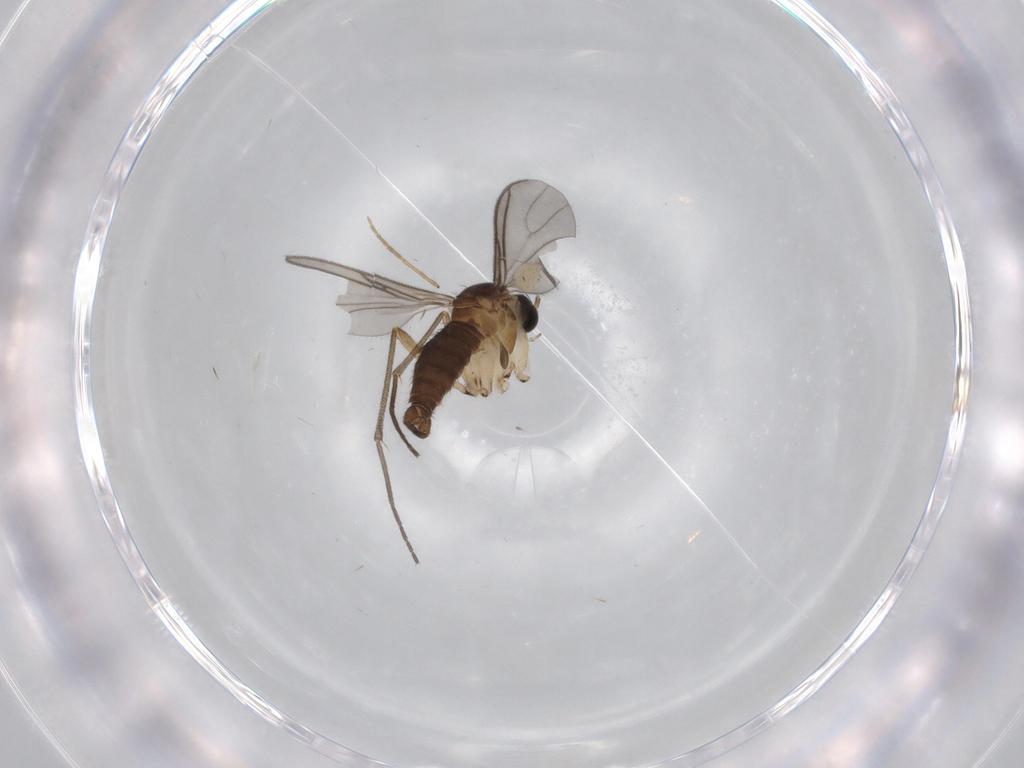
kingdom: Animalia
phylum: Arthropoda
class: Insecta
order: Diptera
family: Sciaridae
